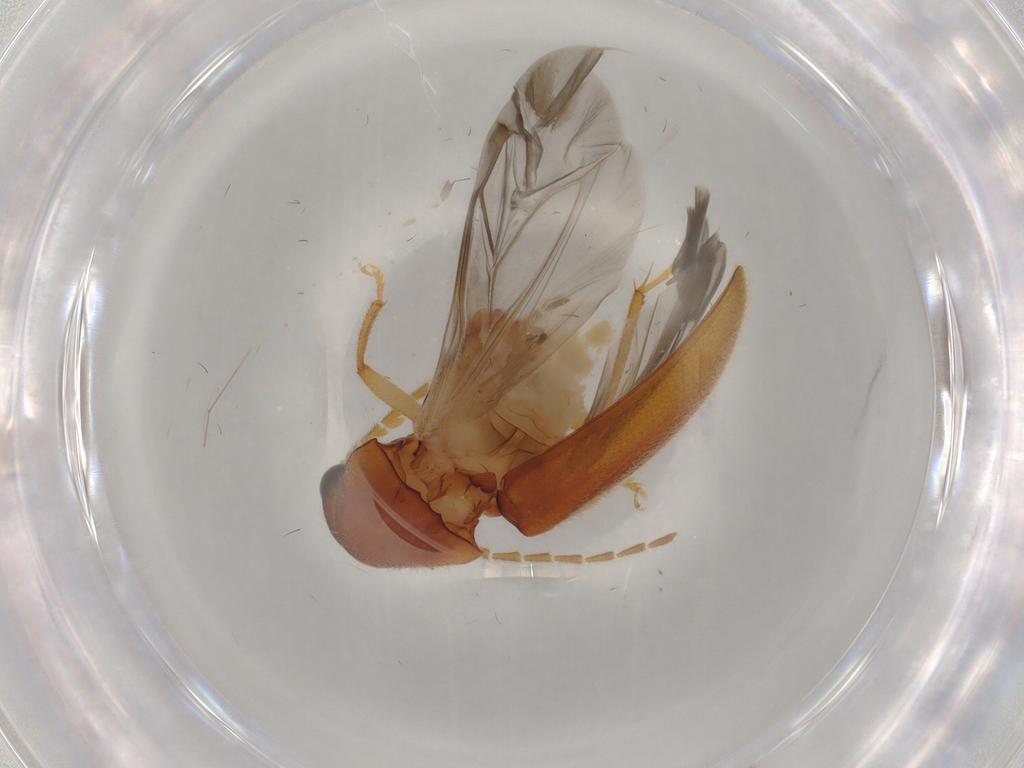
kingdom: Animalia
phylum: Arthropoda
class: Insecta
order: Coleoptera
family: Ptilodactylidae
